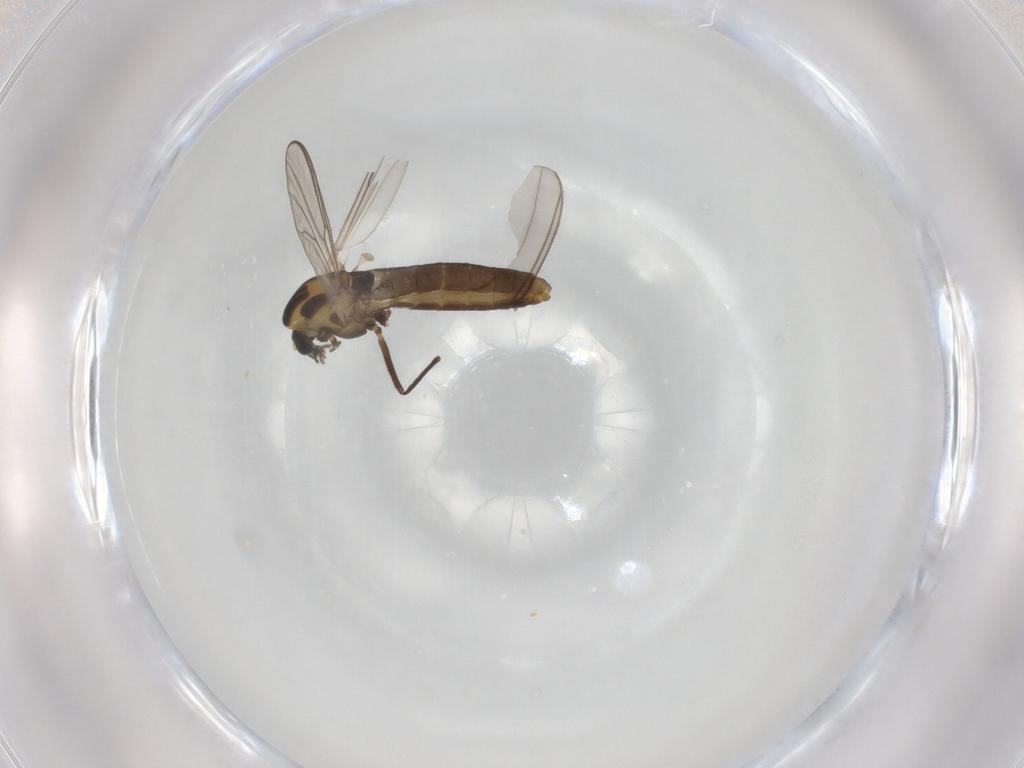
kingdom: Animalia
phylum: Arthropoda
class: Insecta
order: Diptera
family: Chironomidae
